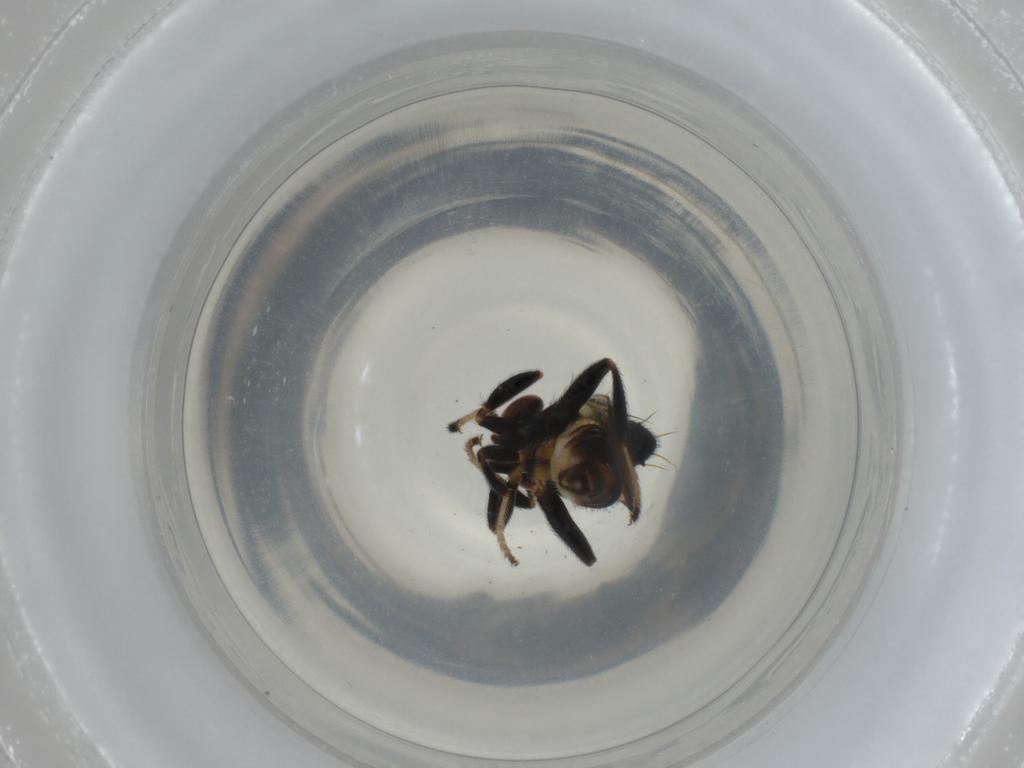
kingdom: Animalia
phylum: Arthropoda
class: Insecta
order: Diptera
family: Chloropidae
